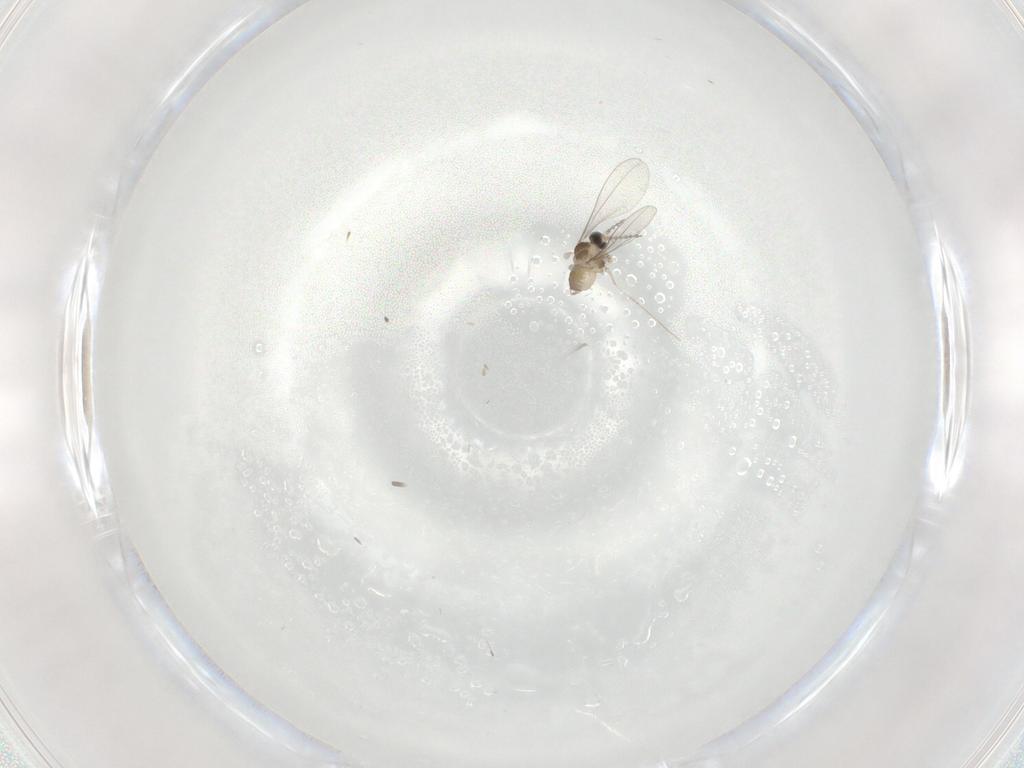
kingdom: Animalia
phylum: Arthropoda
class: Insecta
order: Diptera
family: Cecidomyiidae
